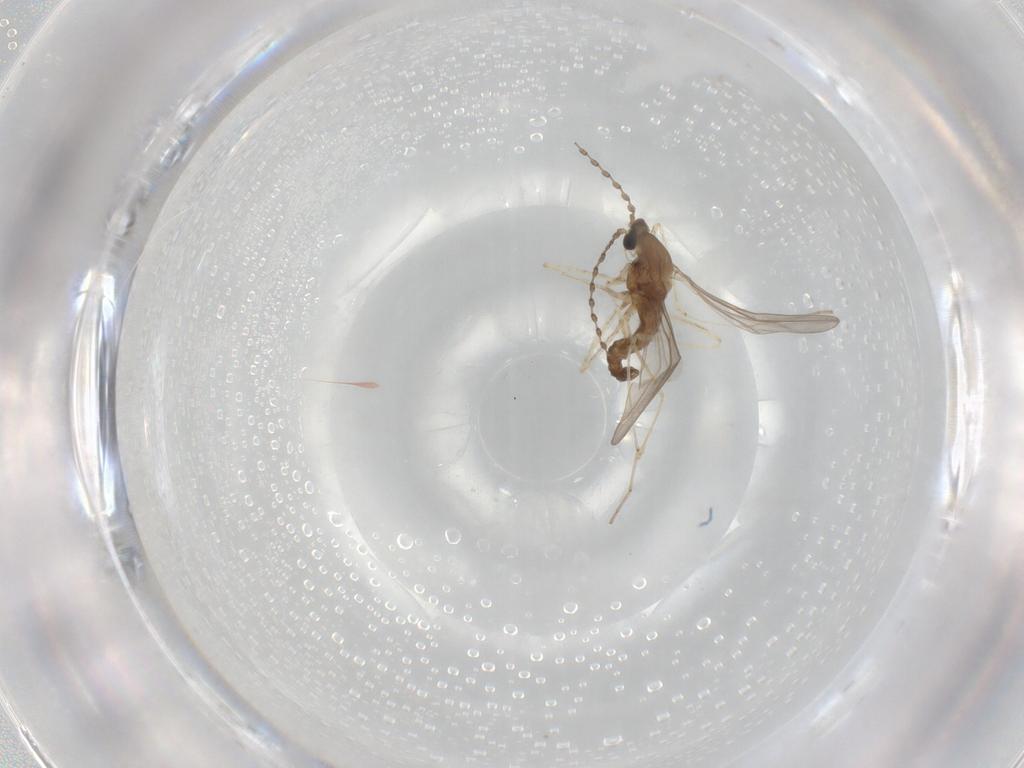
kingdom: Animalia
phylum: Arthropoda
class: Insecta
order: Diptera
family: Cecidomyiidae
